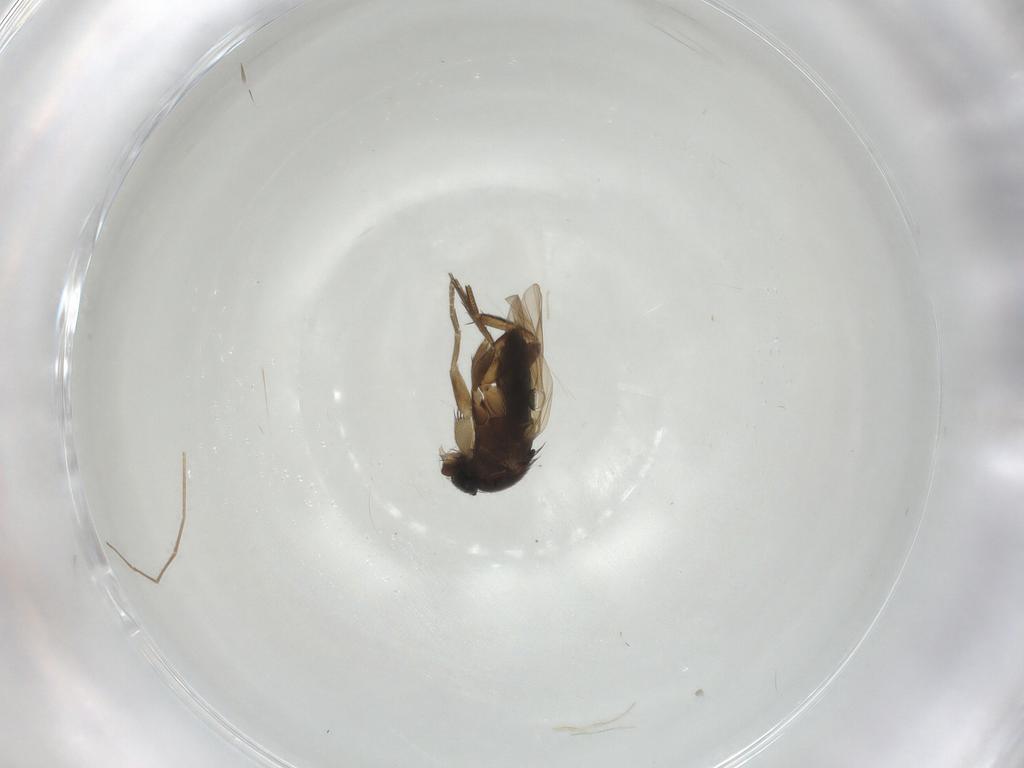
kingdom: Animalia
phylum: Arthropoda
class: Insecta
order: Diptera
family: Phoridae
